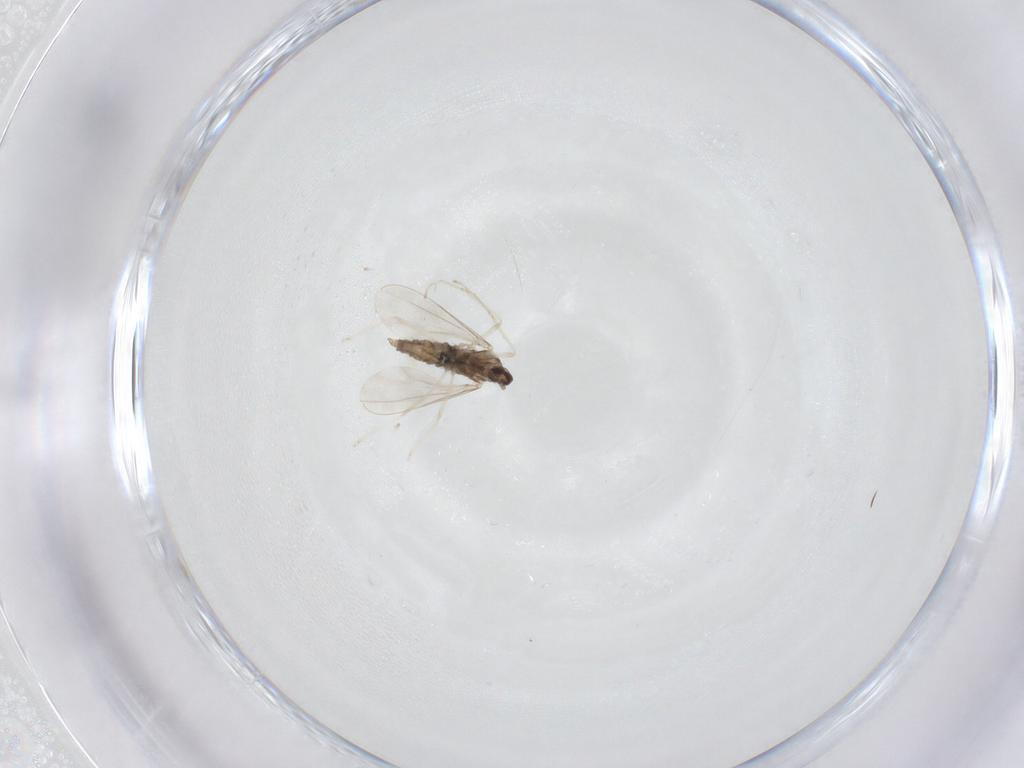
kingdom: Animalia
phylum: Arthropoda
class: Insecta
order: Diptera
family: Cecidomyiidae
